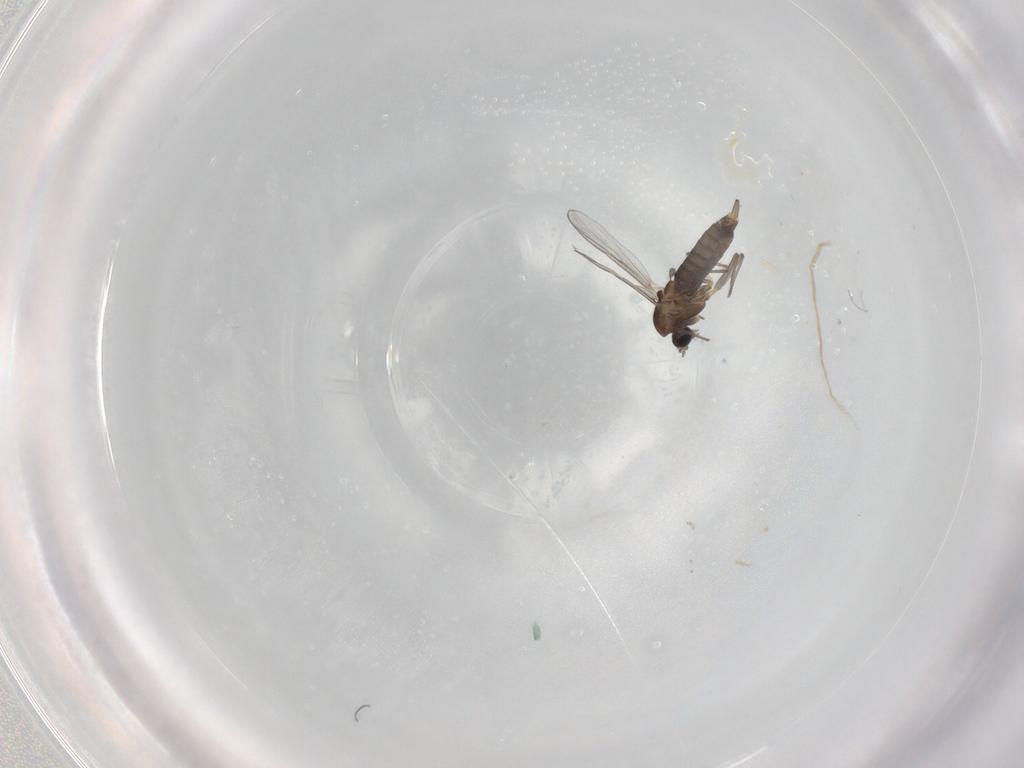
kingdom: Animalia
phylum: Arthropoda
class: Insecta
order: Diptera
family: Chironomidae
